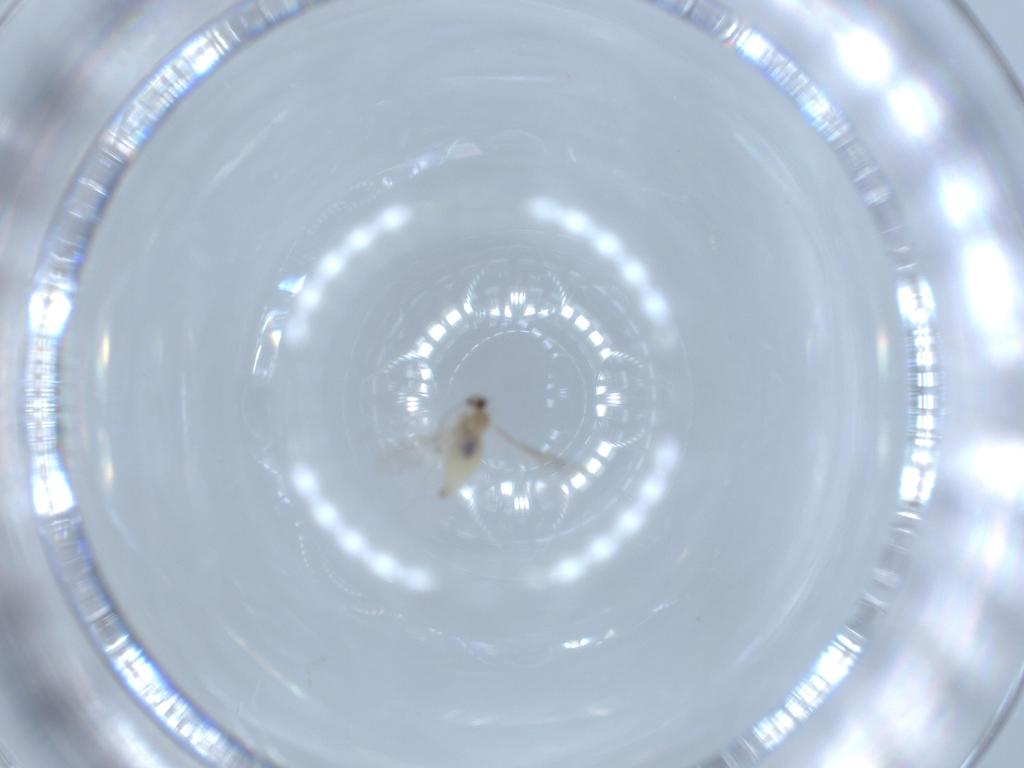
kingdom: Animalia
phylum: Arthropoda
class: Insecta
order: Diptera
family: Cecidomyiidae
